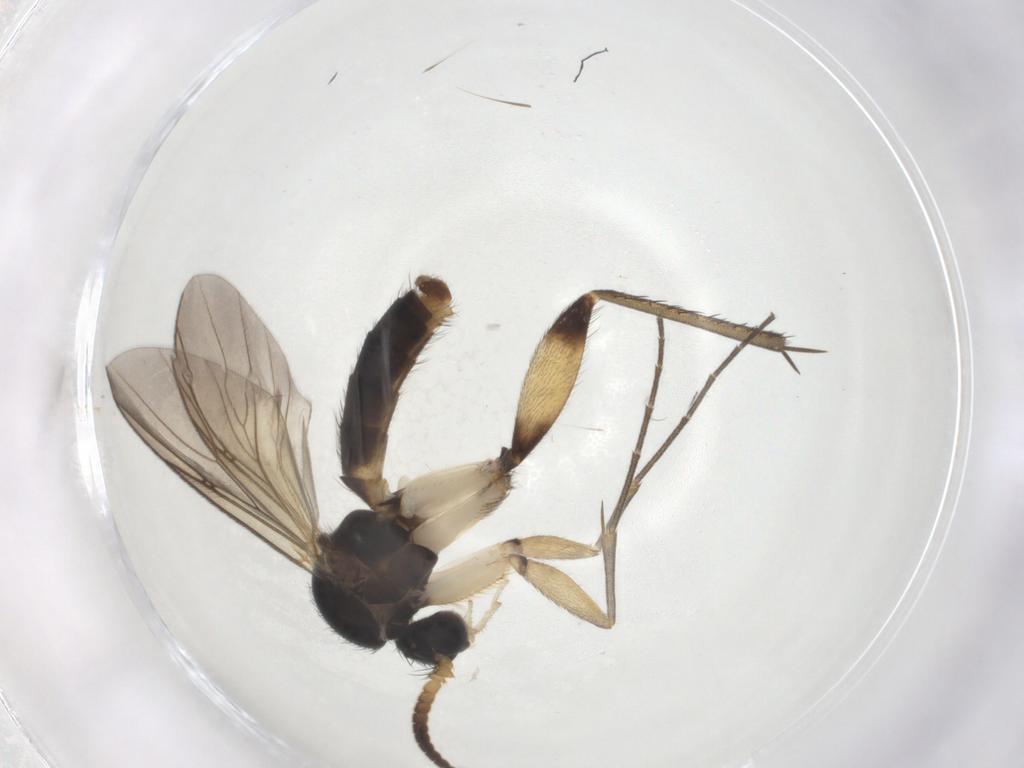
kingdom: Animalia
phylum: Arthropoda
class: Insecta
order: Diptera
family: Mycetophilidae
